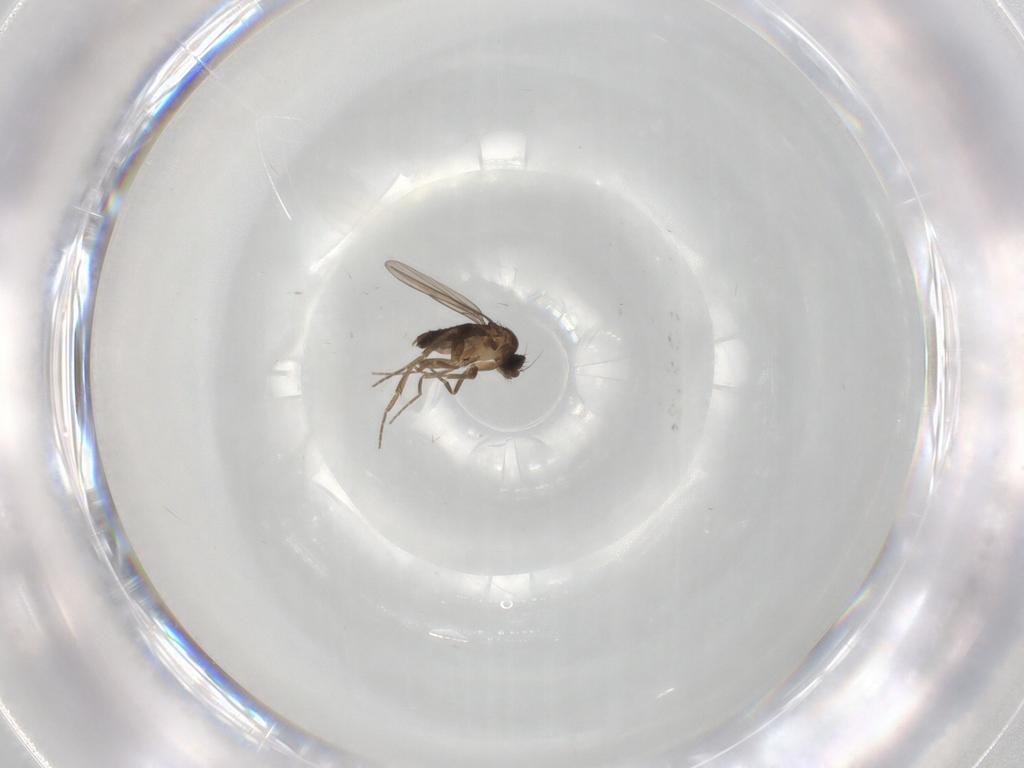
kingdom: Animalia
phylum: Arthropoda
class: Insecta
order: Diptera
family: Phoridae
